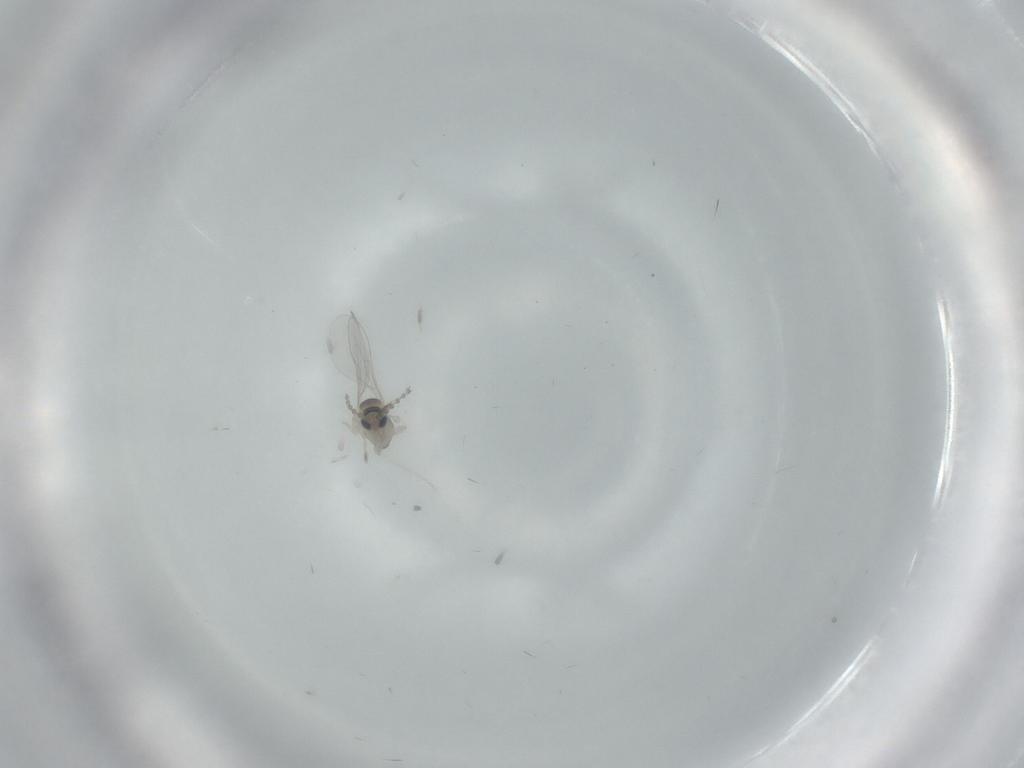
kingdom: Animalia
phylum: Arthropoda
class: Insecta
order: Diptera
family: Cecidomyiidae
